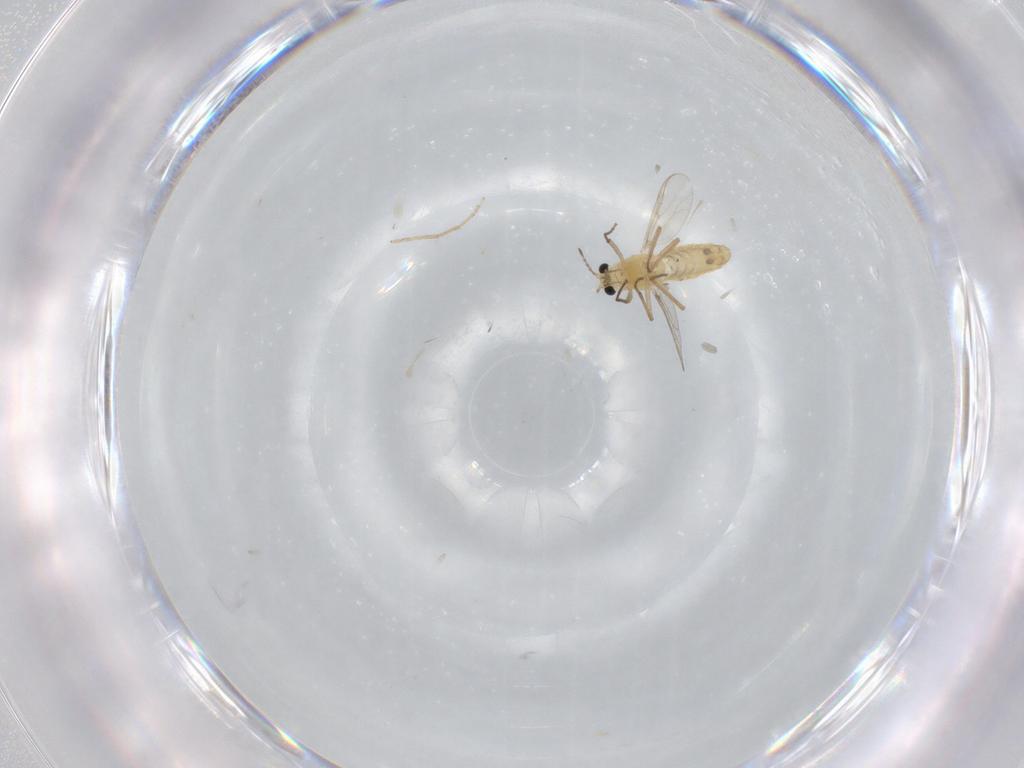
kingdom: Animalia
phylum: Arthropoda
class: Insecta
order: Diptera
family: Chironomidae
